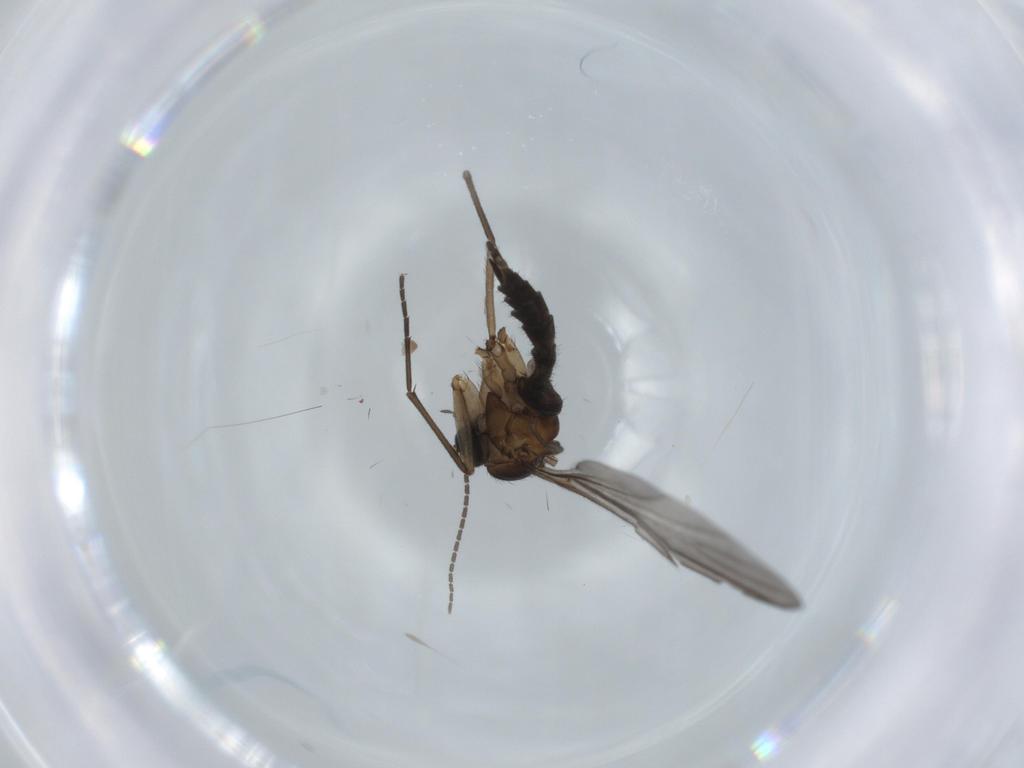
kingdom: Animalia
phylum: Arthropoda
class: Insecta
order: Diptera
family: Sciaridae
